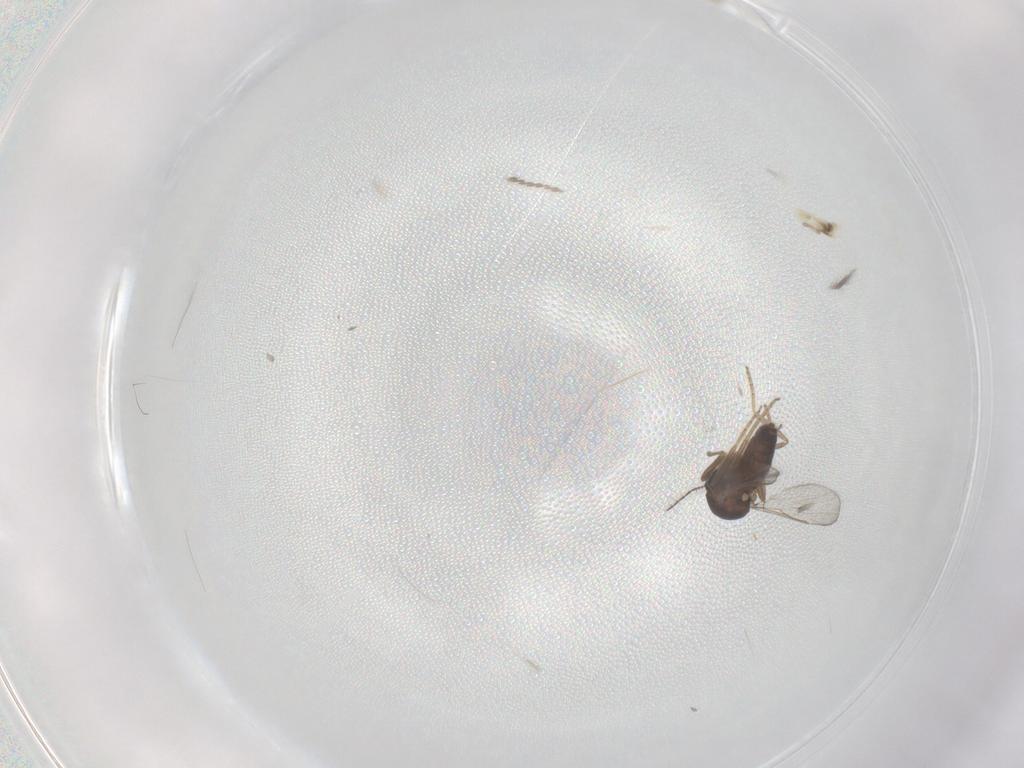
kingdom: Animalia
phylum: Arthropoda
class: Insecta
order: Diptera
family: Ceratopogonidae
